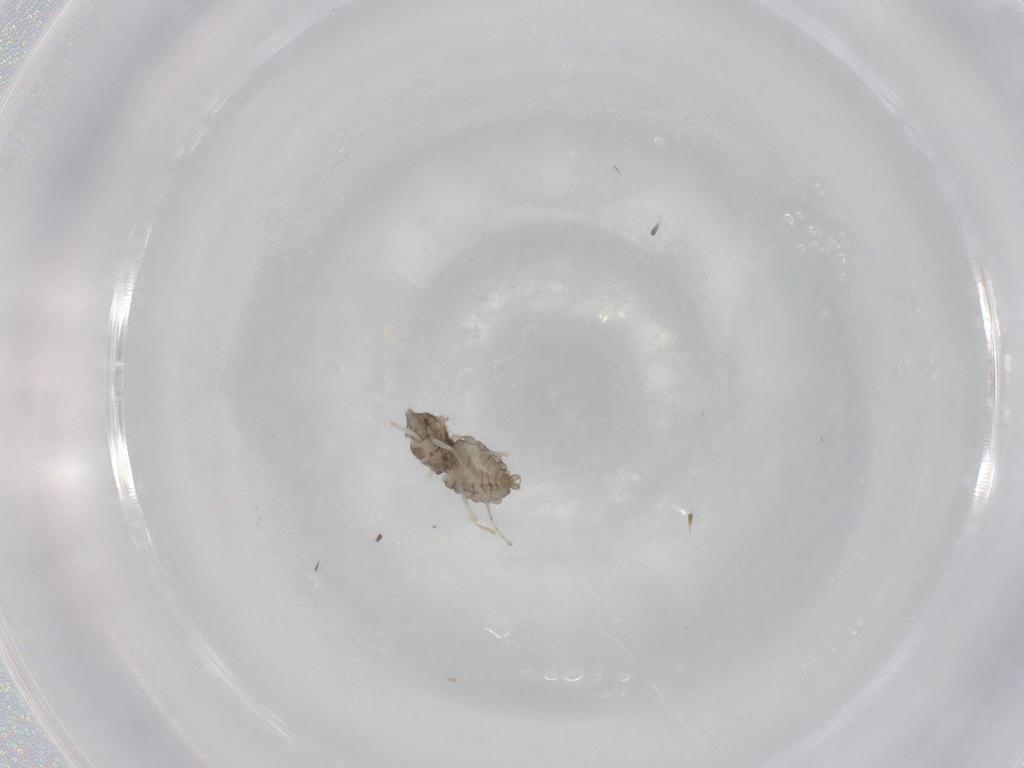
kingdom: Animalia
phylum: Arthropoda
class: Insecta
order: Diptera
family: Cecidomyiidae
